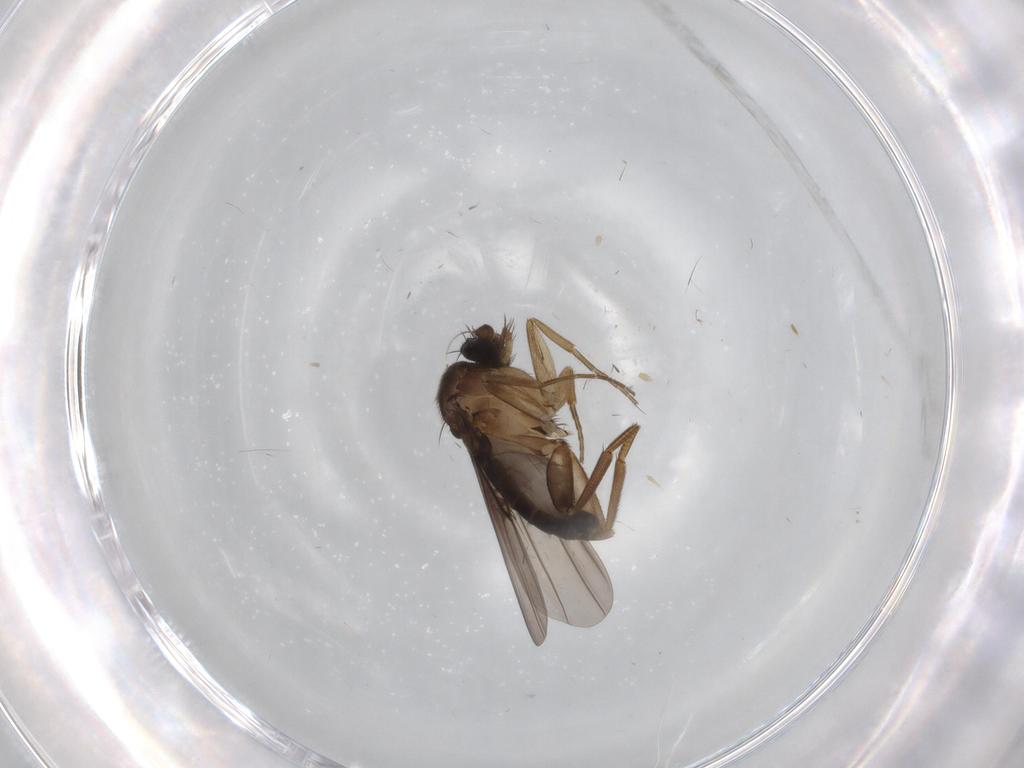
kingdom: Animalia
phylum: Arthropoda
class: Insecta
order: Diptera
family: Phoridae
